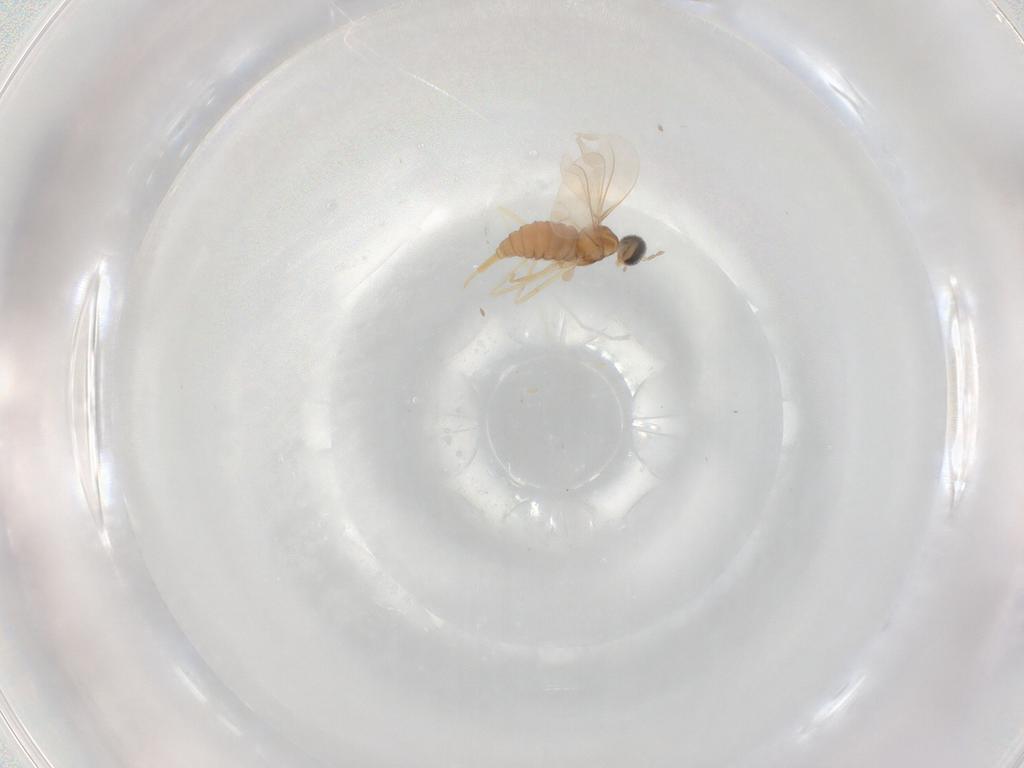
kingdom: Animalia
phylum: Arthropoda
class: Insecta
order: Diptera
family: Cecidomyiidae
